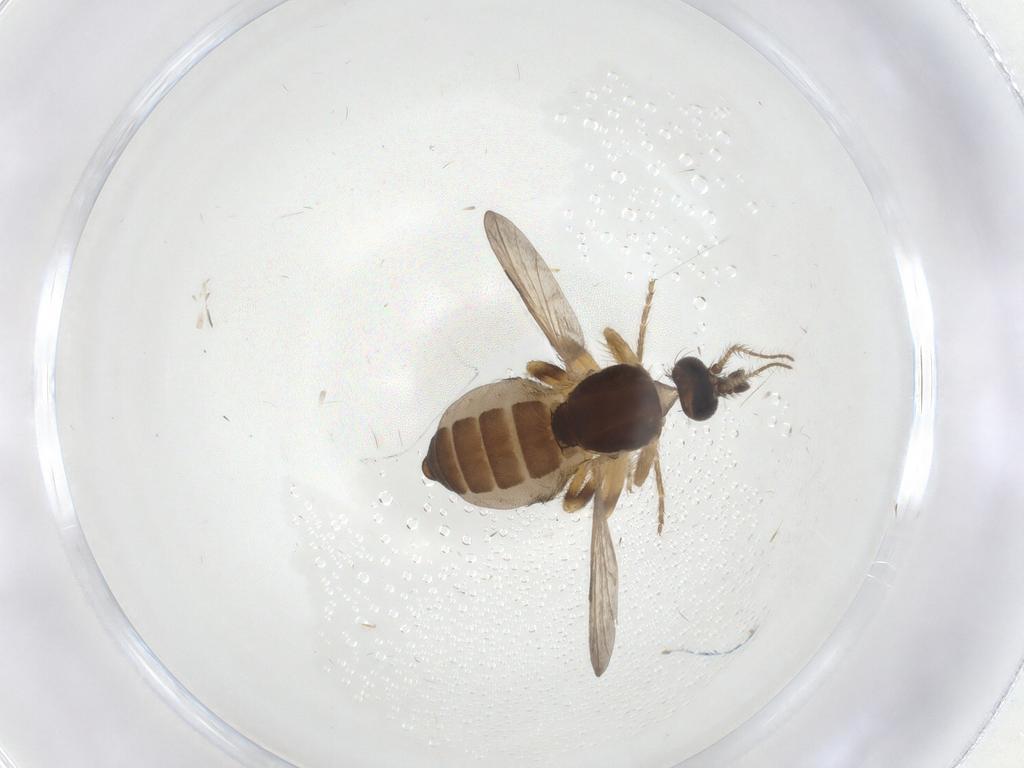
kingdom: Animalia
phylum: Arthropoda
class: Insecta
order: Diptera
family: Ceratopogonidae
